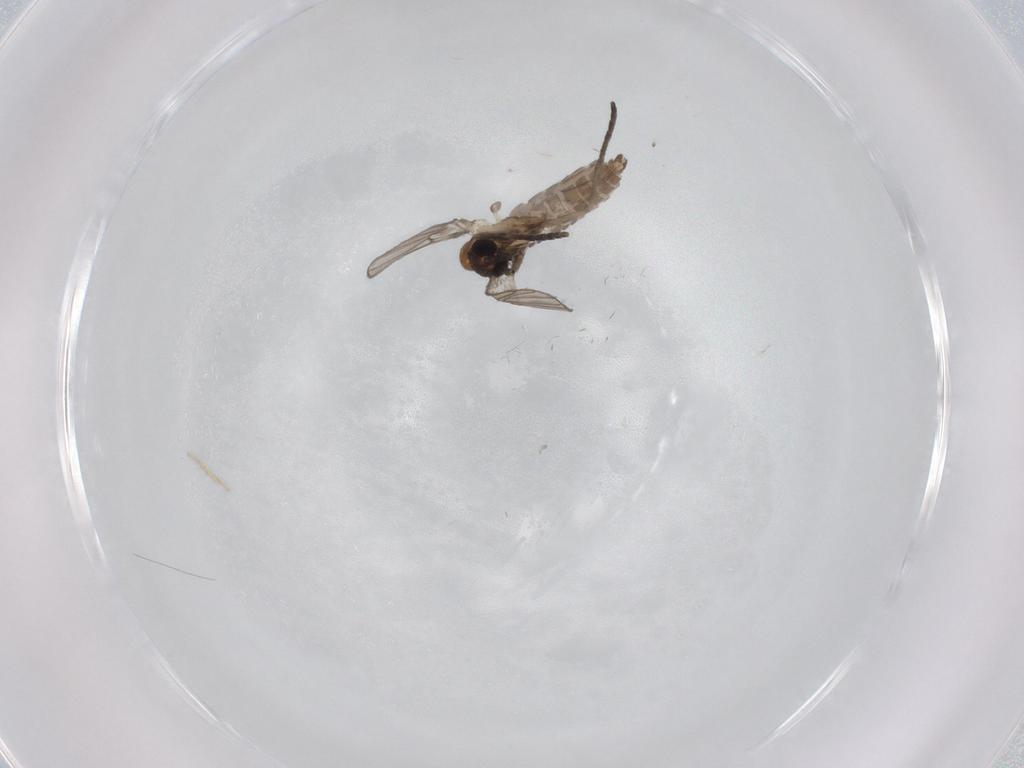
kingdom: Animalia
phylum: Arthropoda
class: Insecta
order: Diptera
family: Psychodidae
